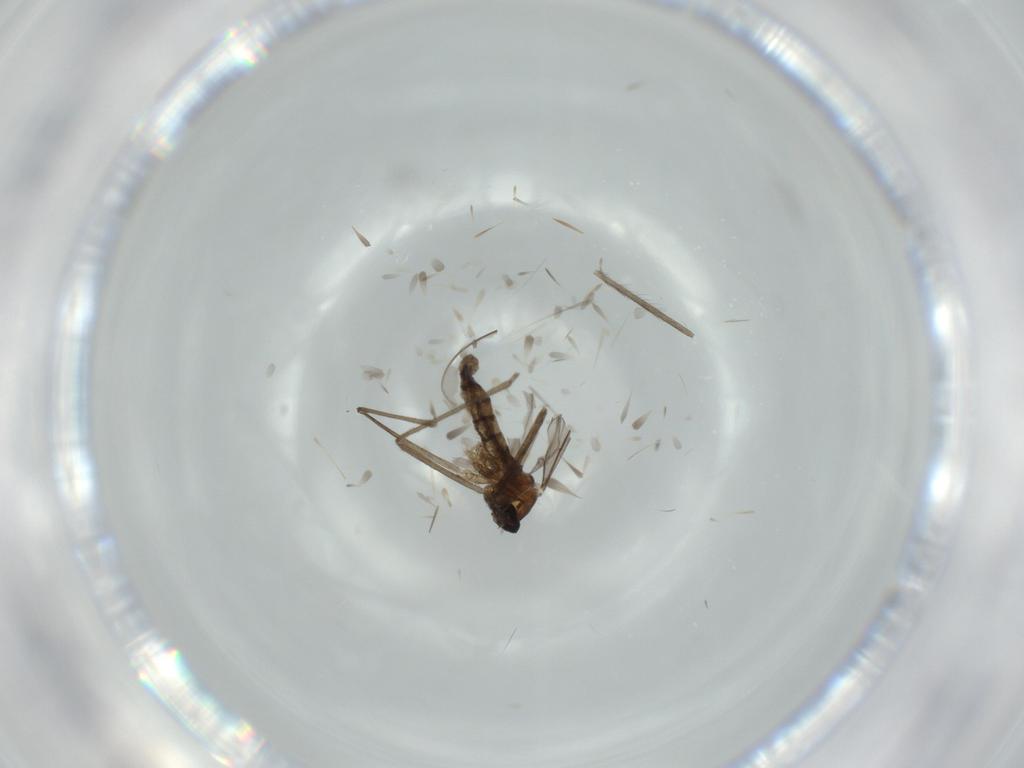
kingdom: Animalia
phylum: Arthropoda
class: Insecta
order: Diptera
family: Cecidomyiidae
